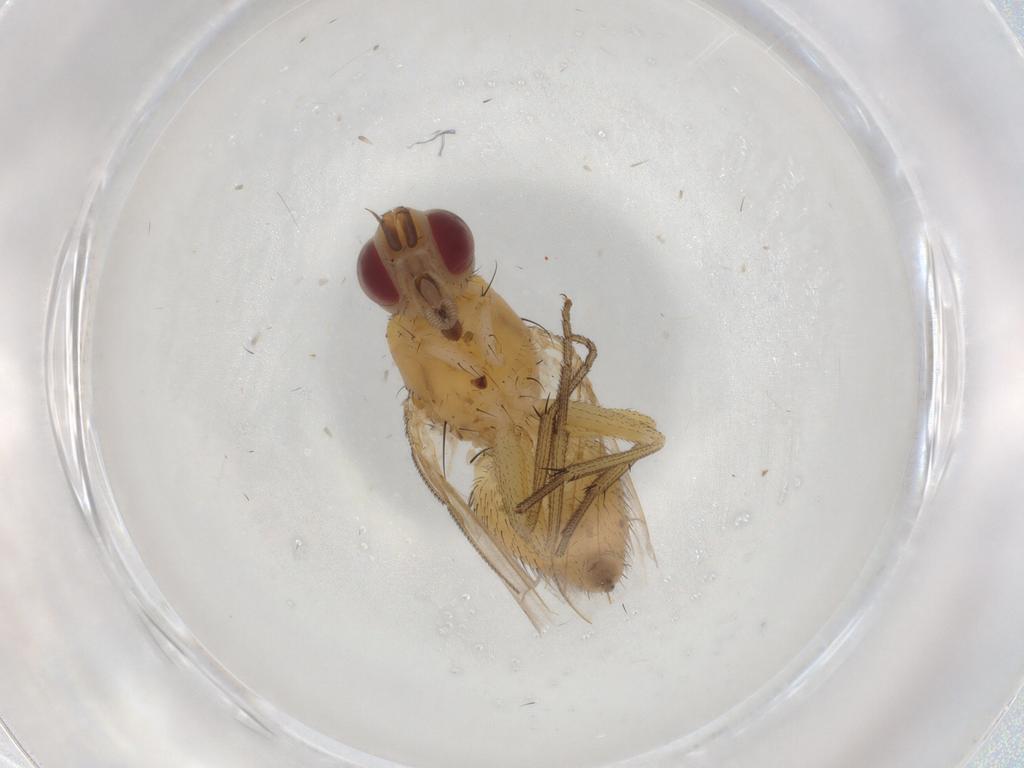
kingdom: Animalia
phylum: Arthropoda
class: Insecta
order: Diptera
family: Muscidae
